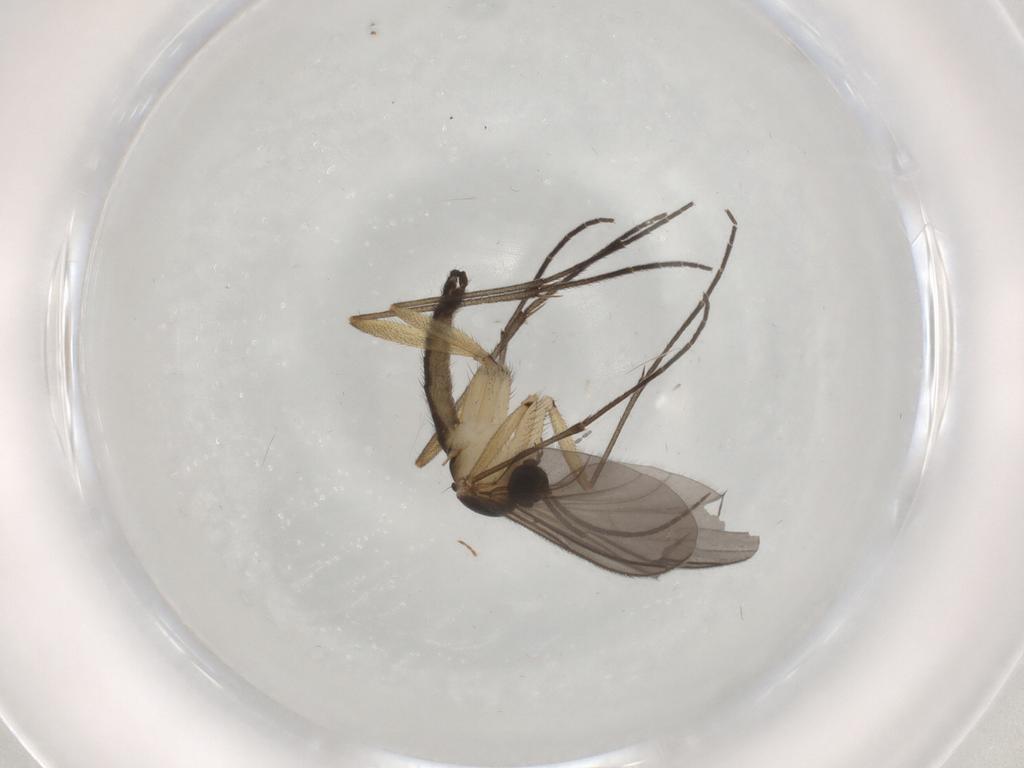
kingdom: Animalia
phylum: Arthropoda
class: Insecta
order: Diptera
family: Sciaridae
